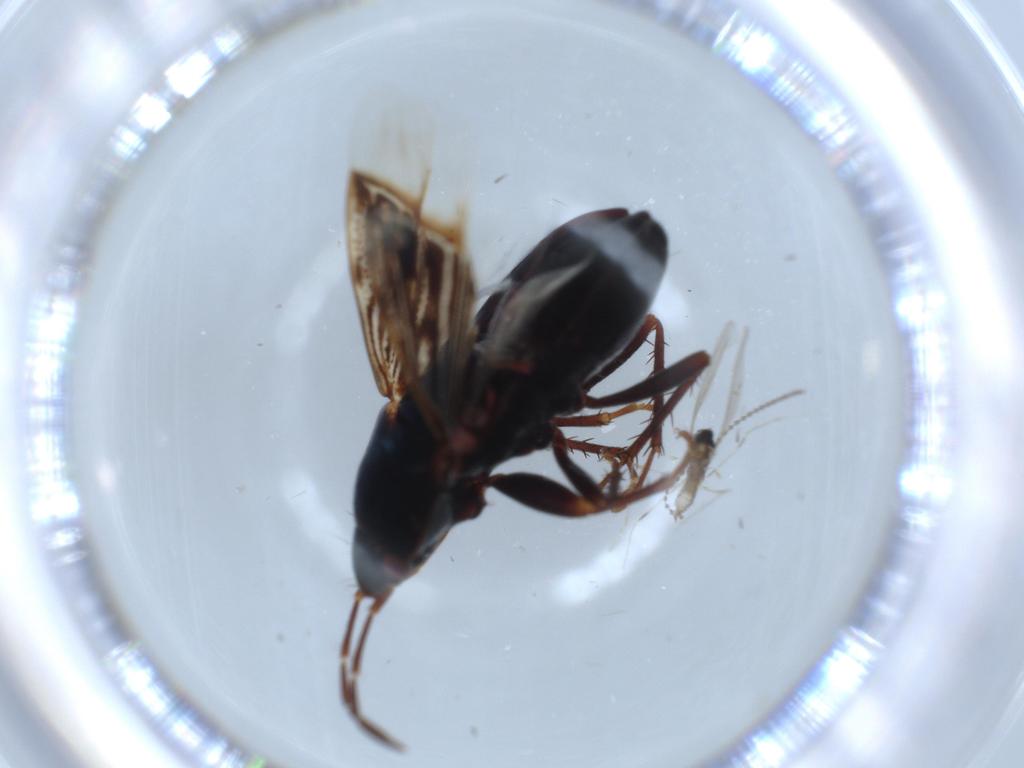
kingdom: Animalia
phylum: Arthropoda
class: Insecta
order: Hemiptera
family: Rhyparochromidae
